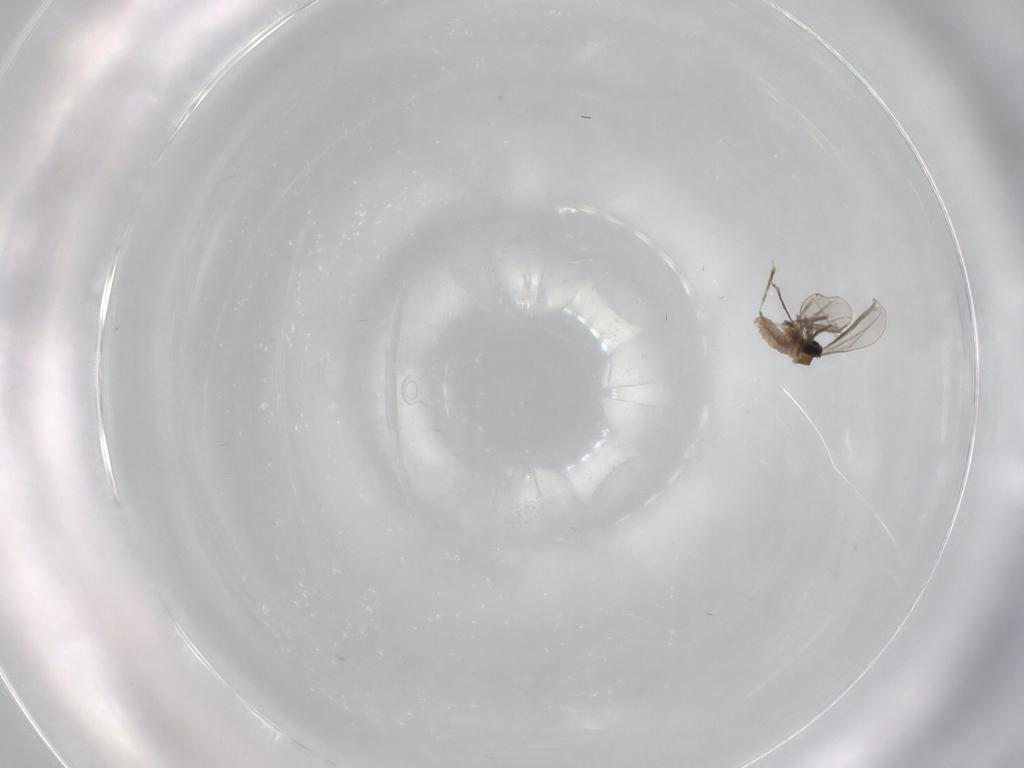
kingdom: Animalia
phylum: Arthropoda
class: Insecta
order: Diptera
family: Cecidomyiidae
